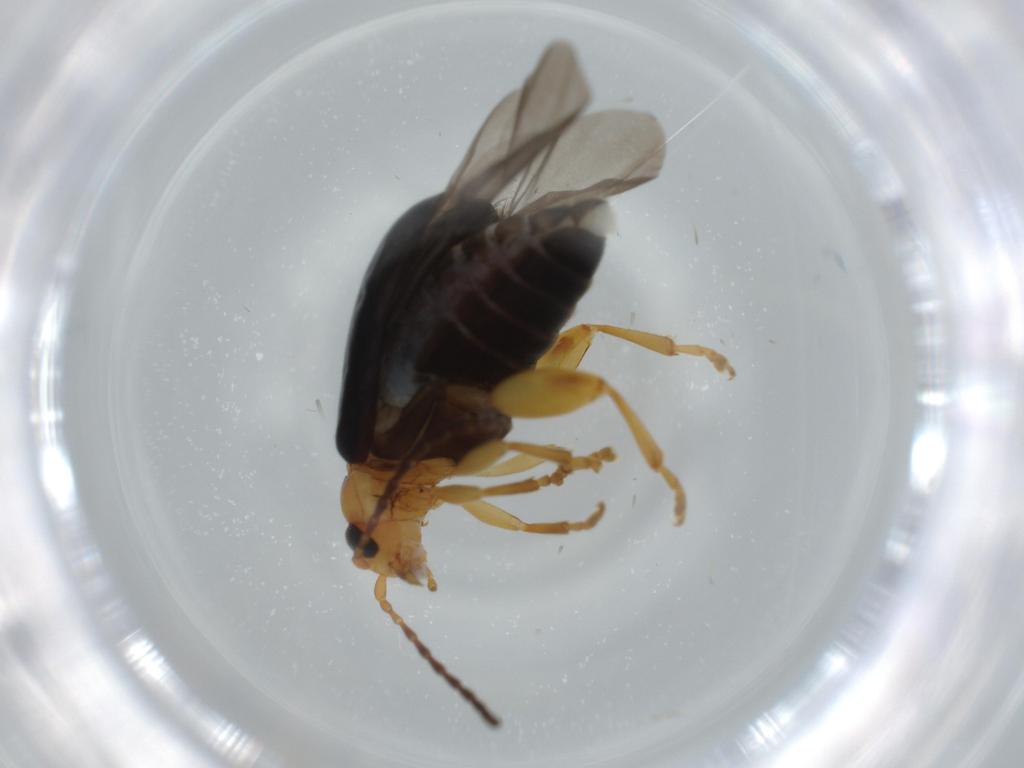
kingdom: Animalia
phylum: Arthropoda
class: Insecta
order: Coleoptera
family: Chrysomelidae
